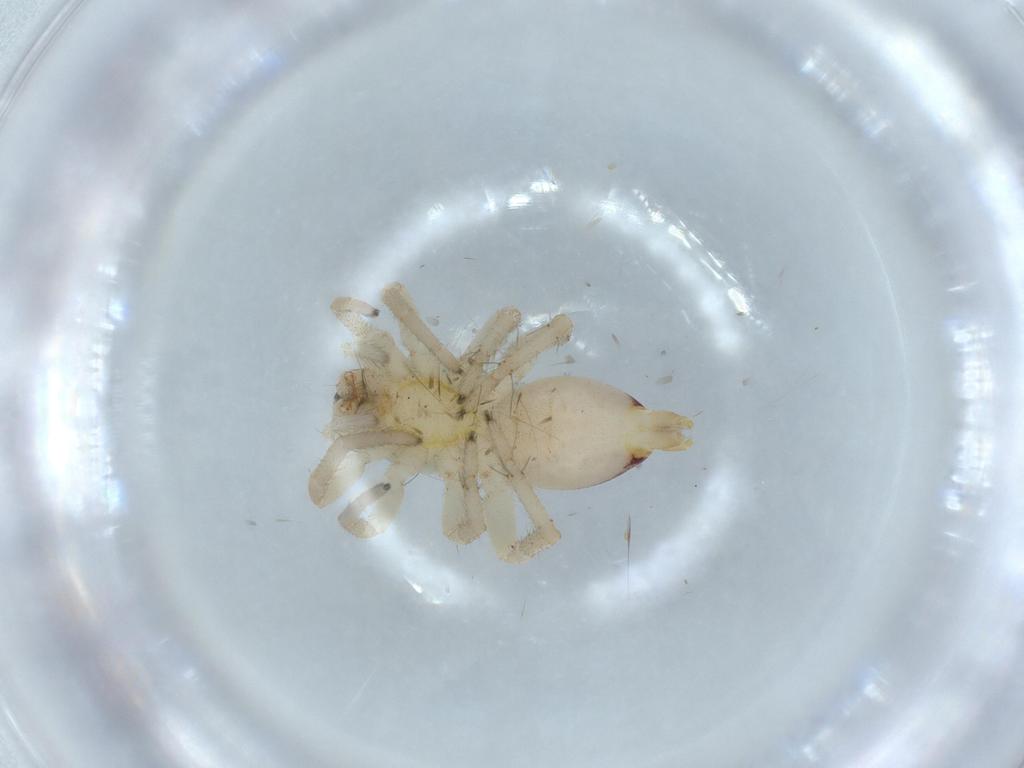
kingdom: Animalia
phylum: Arthropoda
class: Arachnida
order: Araneae
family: Clubionidae
